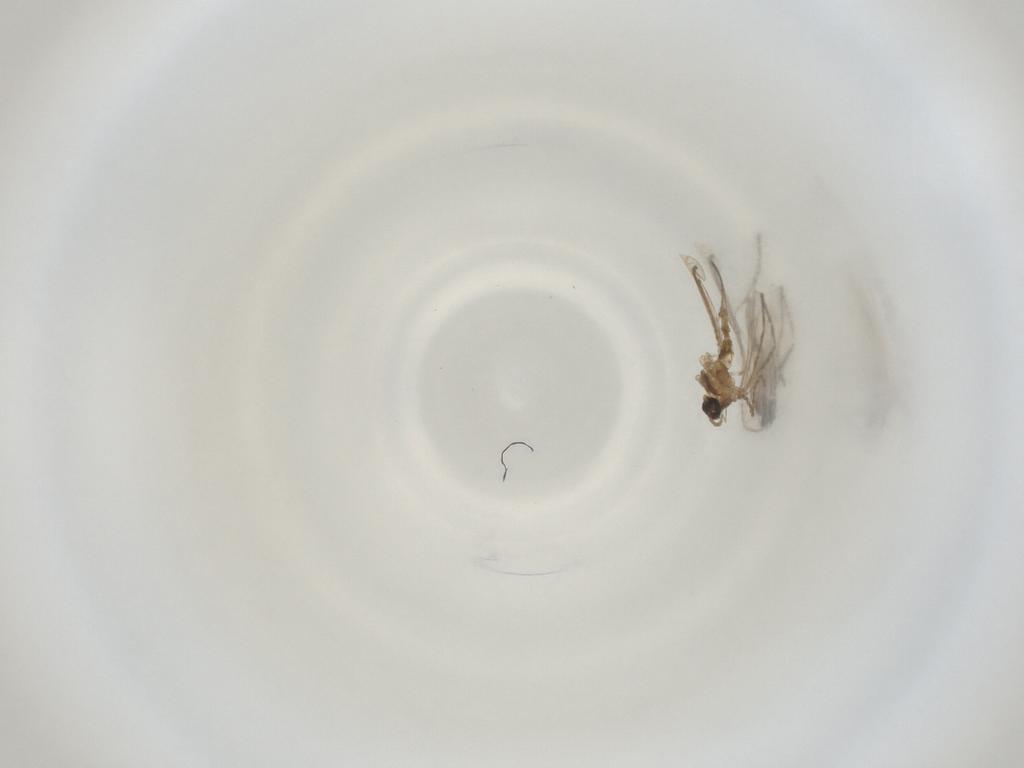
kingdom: Animalia
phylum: Arthropoda
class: Insecta
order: Diptera
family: Cecidomyiidae
